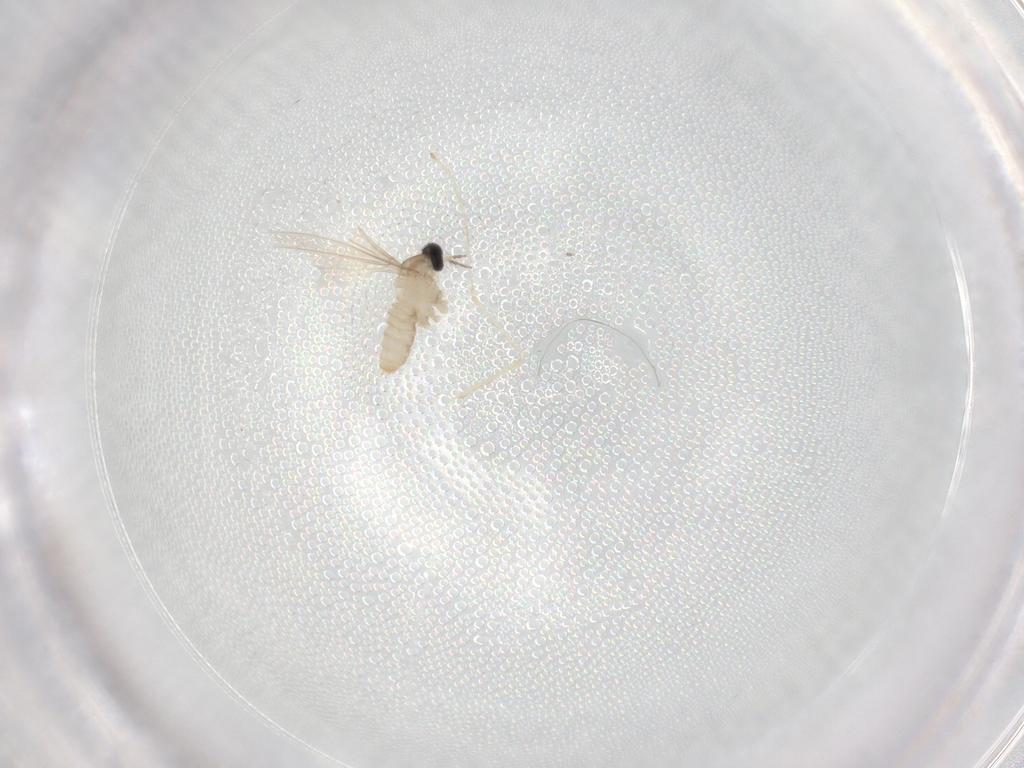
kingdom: Animalia
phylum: Arthropoda
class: Insecta
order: Diptera
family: Cecidomyiidae
